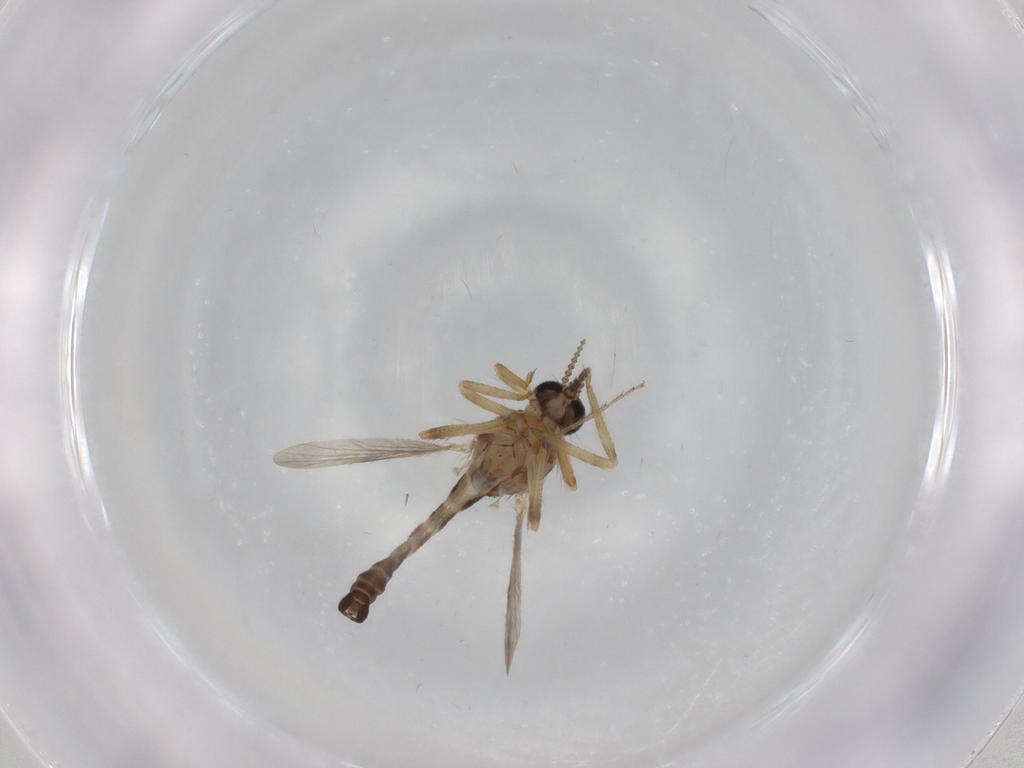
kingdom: Animalia
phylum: Arthropoda
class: Insecta
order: Diptera
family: Ceratopogonidae
